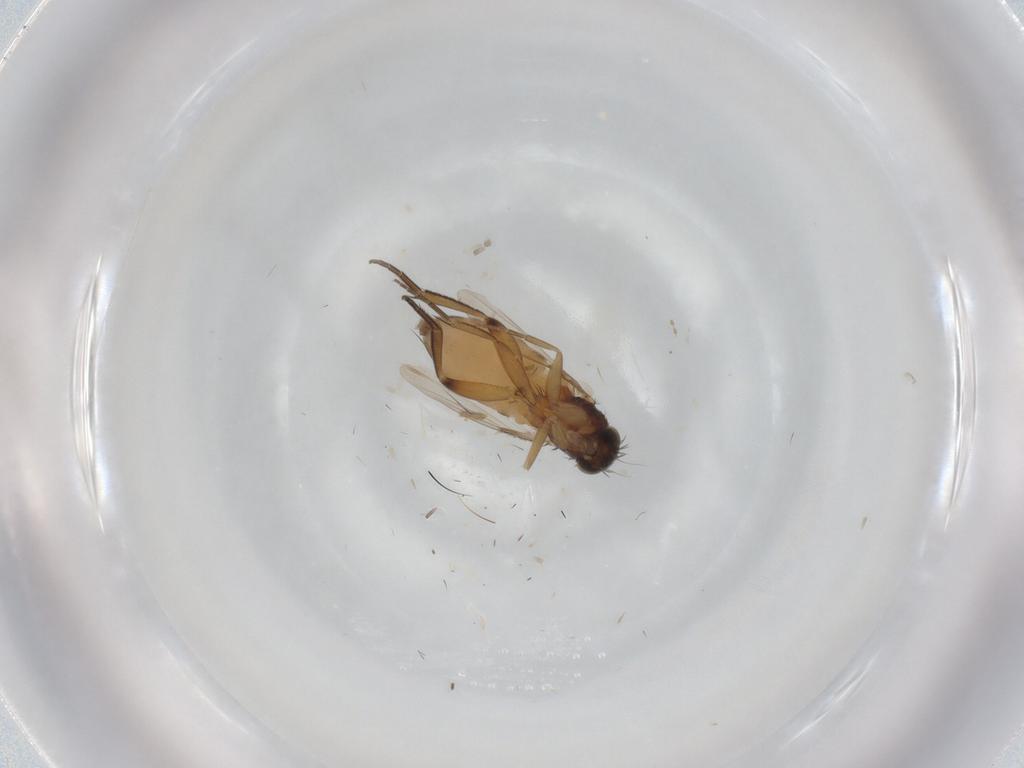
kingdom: Animalia
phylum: Arthropoda
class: Insecta
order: Diptera
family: Phoridae
